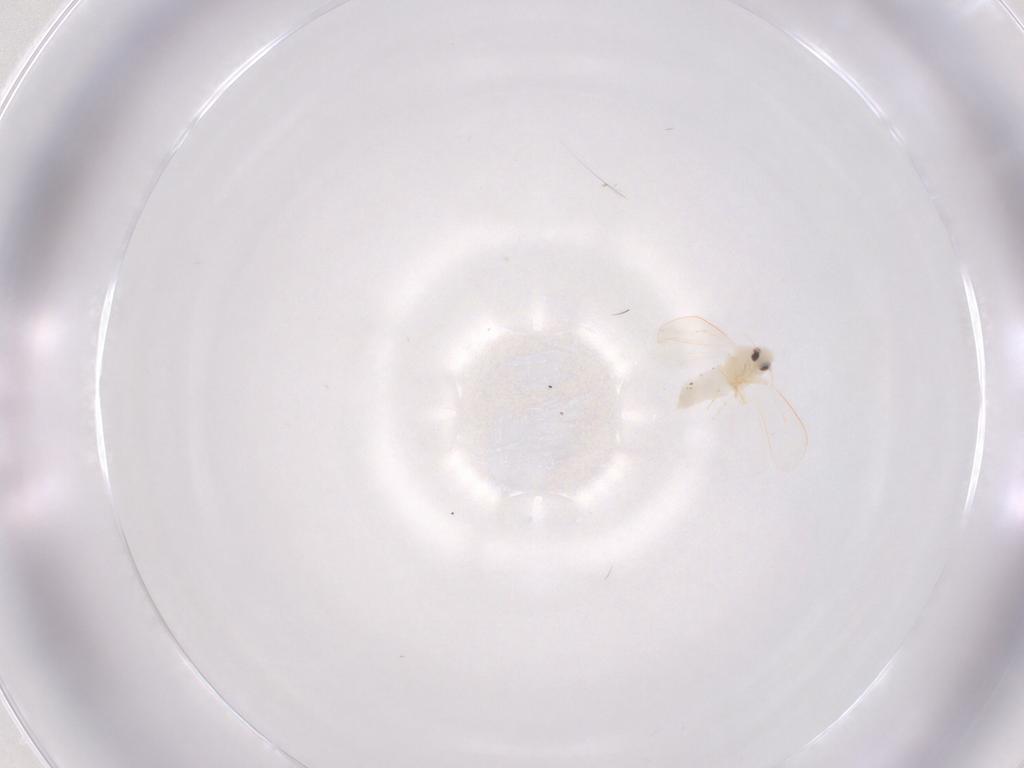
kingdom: Animalia
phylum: Arthropoda
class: Insecta
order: Hemiptera
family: Aleyrodidae
